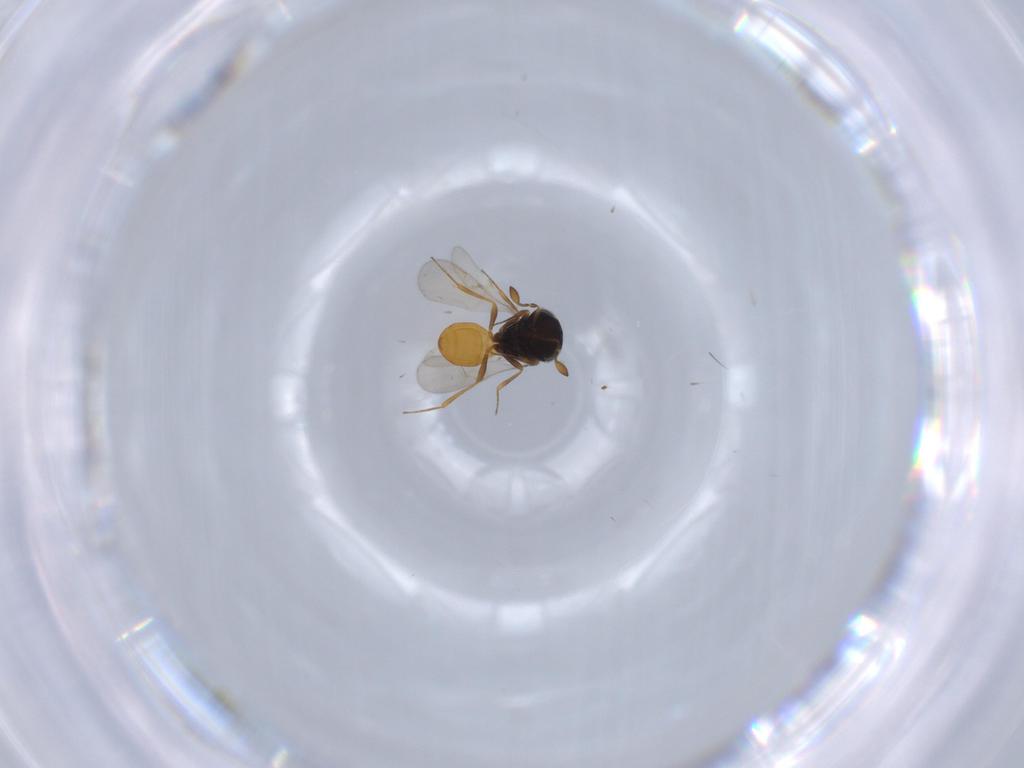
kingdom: Animalia
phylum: Arthropoda
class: Insecta
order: Hymenoptera
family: Scelionidae
